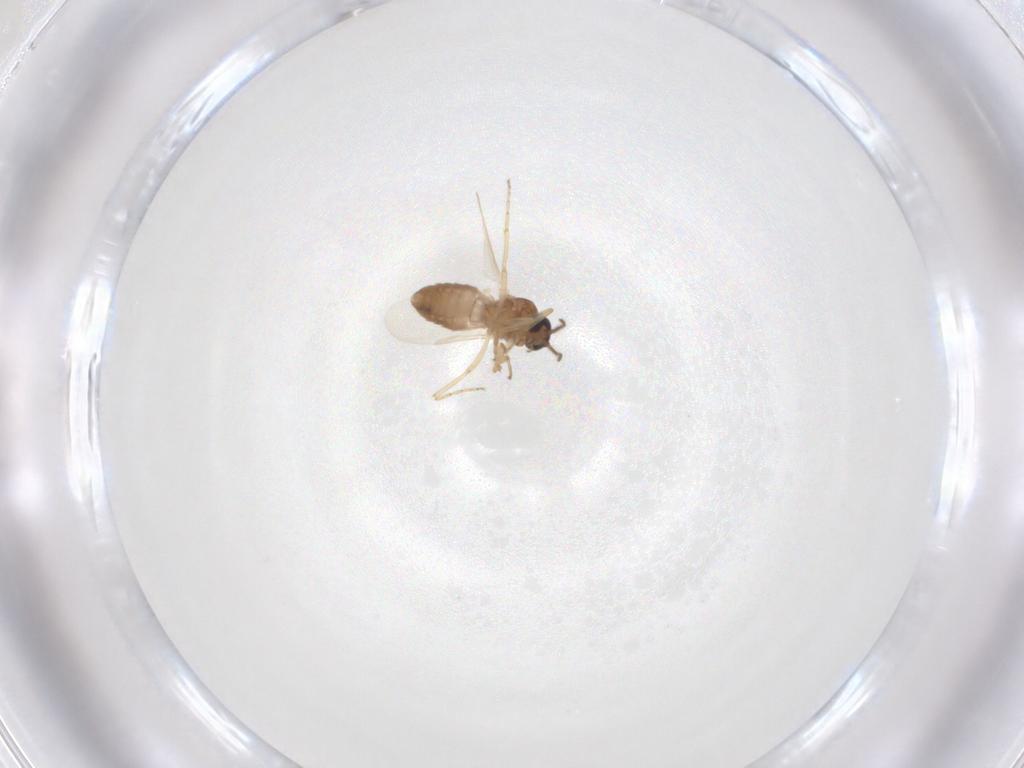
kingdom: Animalia
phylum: Arthropoda
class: Insecta
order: Diptera
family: Ceratopogonidae
